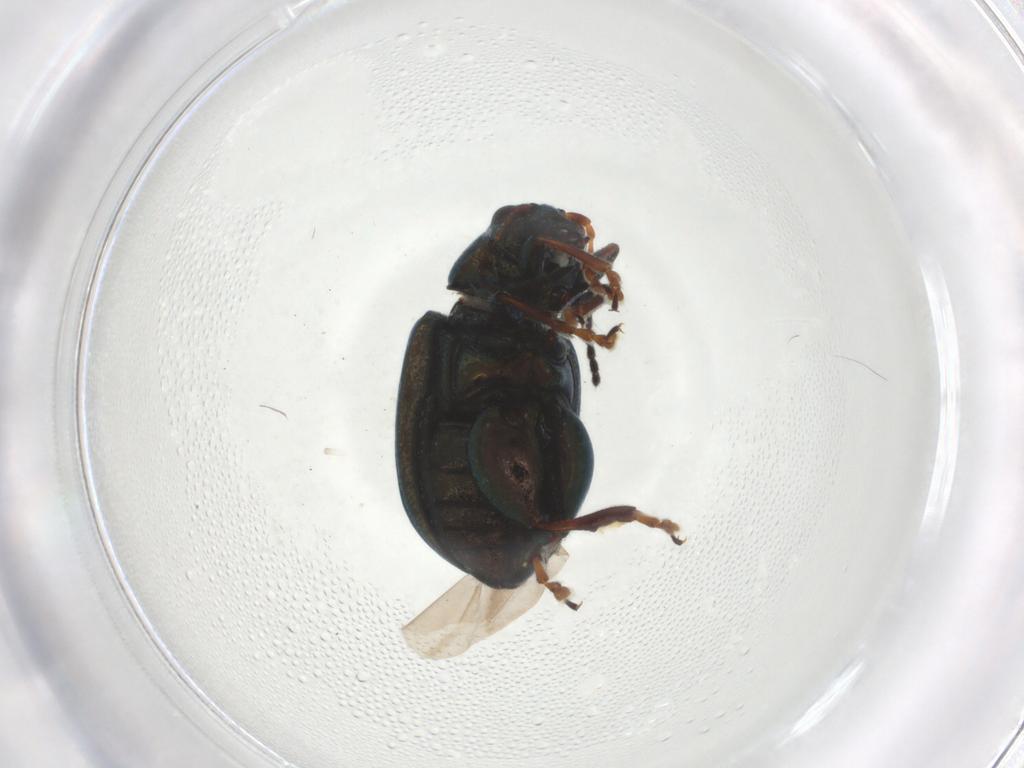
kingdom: Animalia
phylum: Arthropoda
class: Insecta
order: Coleoptera
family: Chrysomelidae
